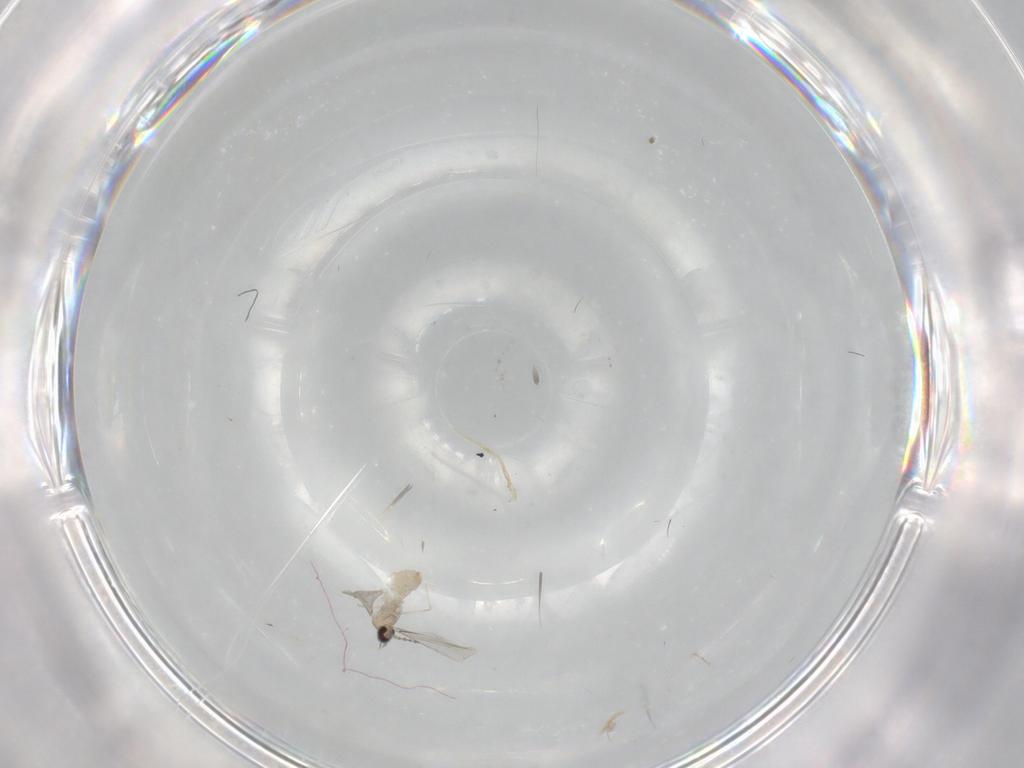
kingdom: Animalia
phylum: Arthropoda
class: Insecta
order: Diptera
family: Cecidomyiidae
